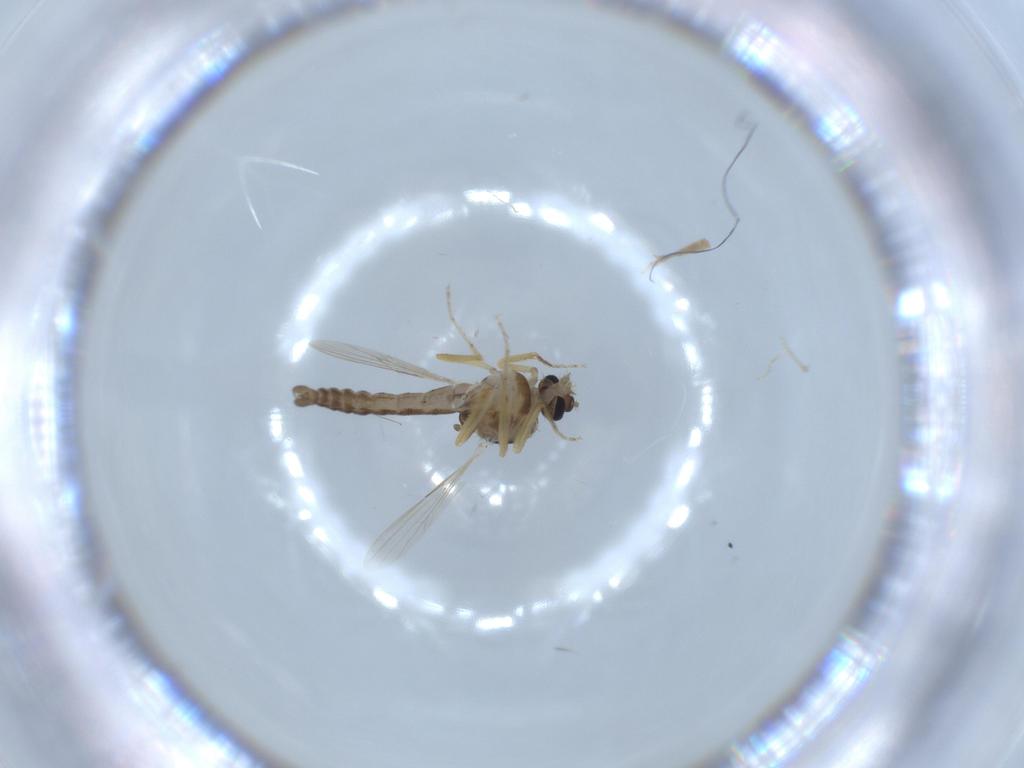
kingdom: Animalia
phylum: Arthropoda
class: Insecta
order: Diptera
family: Ceratopogonidae
